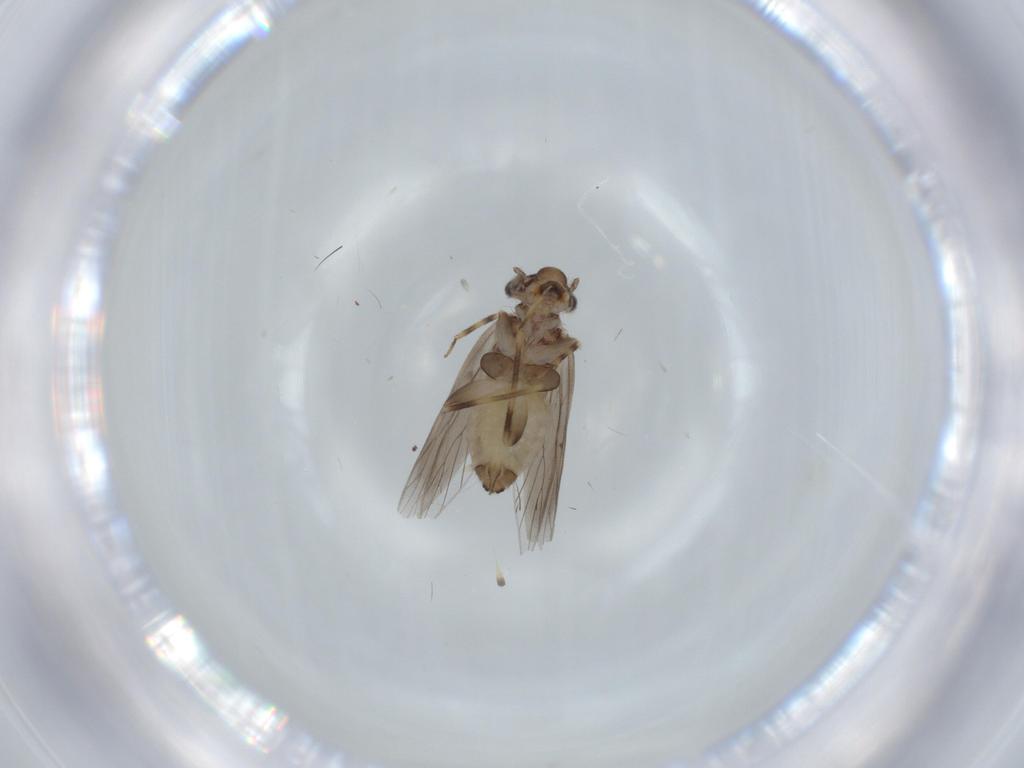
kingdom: Animalia
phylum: Arthropoda
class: Insecta
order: Psocodea
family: Lepidopsocidae
